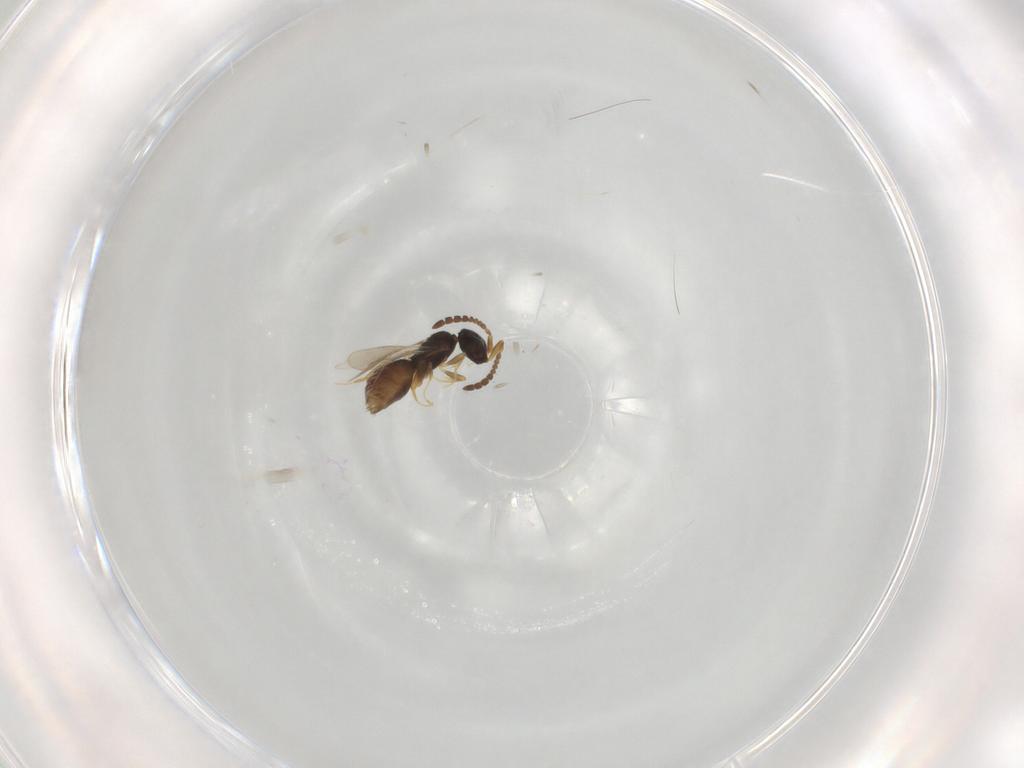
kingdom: Animalia
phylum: Arthropoda
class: Insecta
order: Hymenoptera
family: Ceraphronidae
